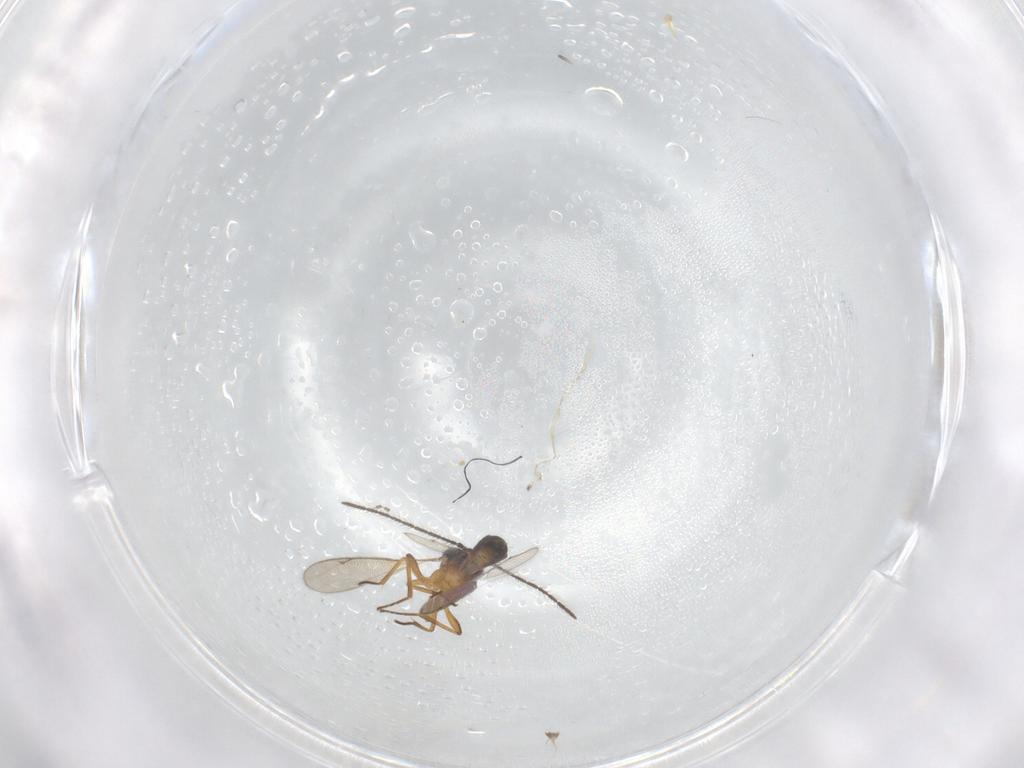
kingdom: Animalia
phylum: Arthropoda
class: Insecta
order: Hymenoptera
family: Eupelmidae
